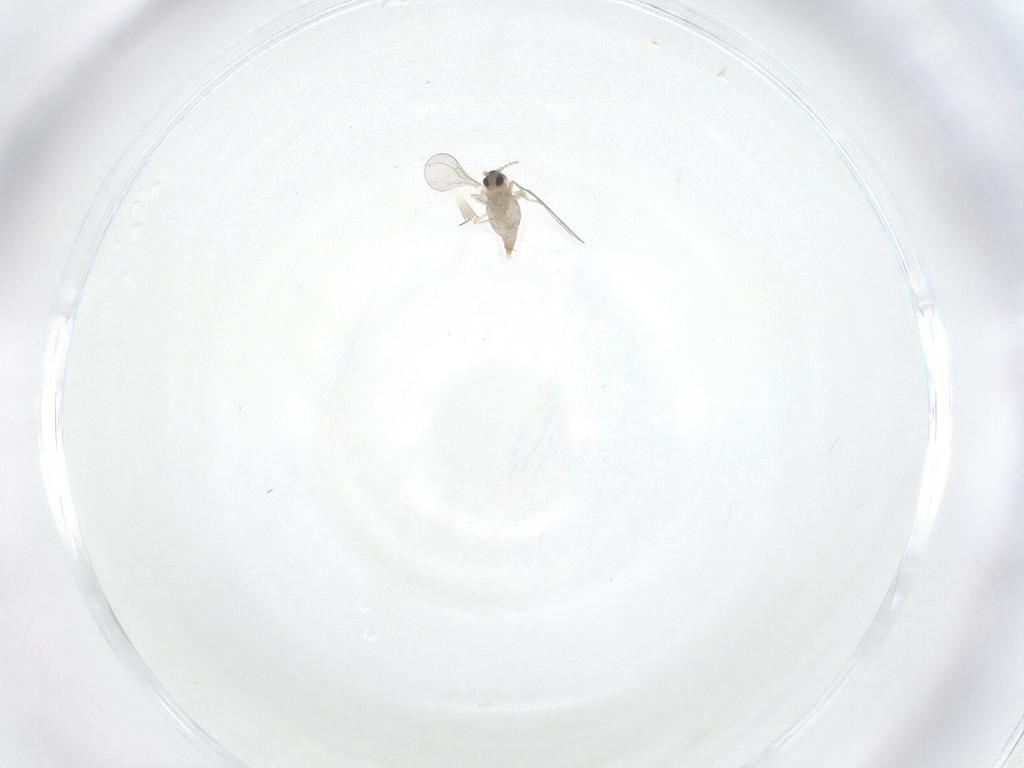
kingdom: Animalia
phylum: Arthropoda
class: Insecta
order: Diptera
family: Cecidomyiidae
